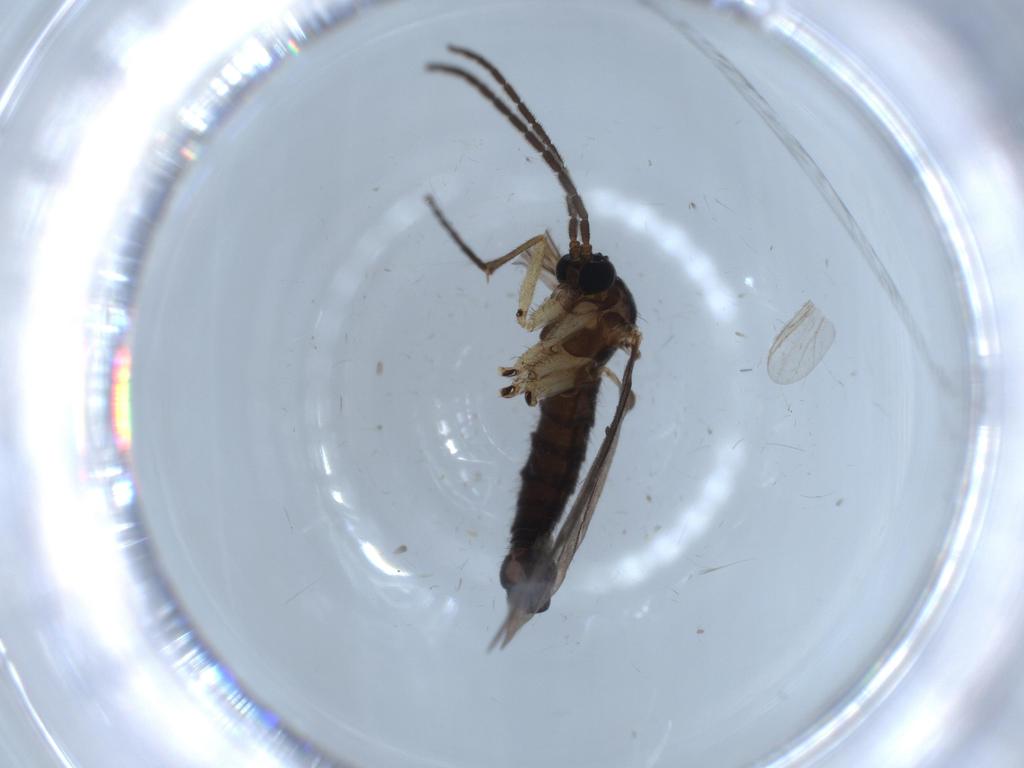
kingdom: Animalia
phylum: Arthropoda
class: Insecta
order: Diptera
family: Phoridae
